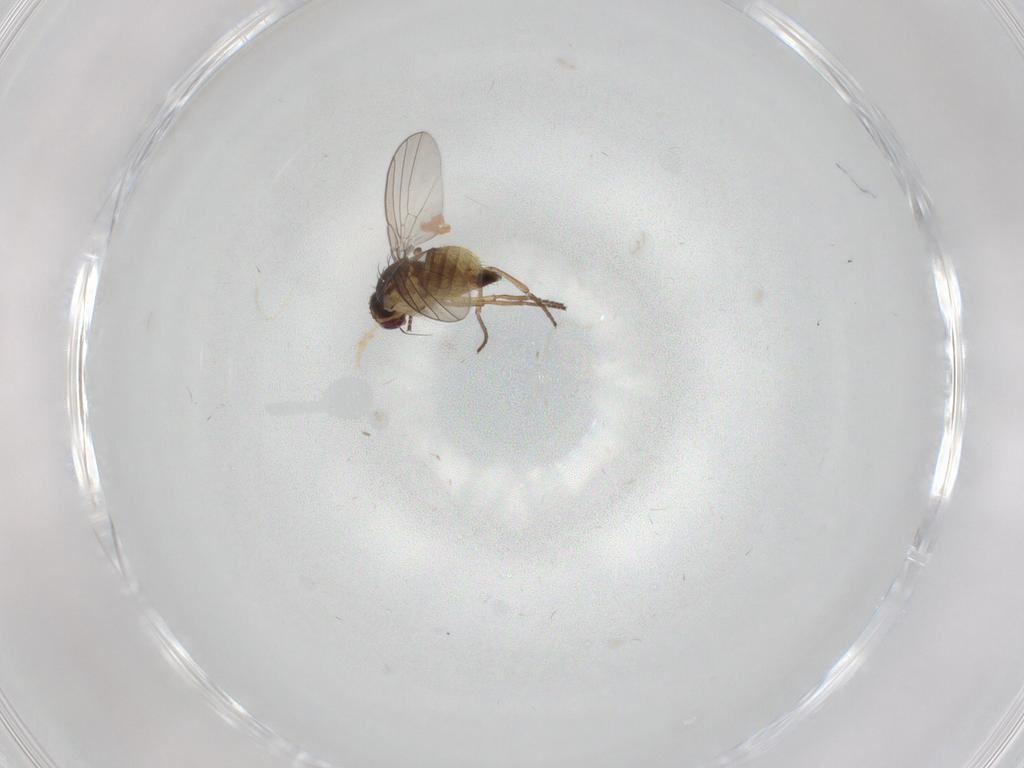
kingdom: Animalia
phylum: Arthropoda
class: Insecta
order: Diptera
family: Agromyzidae
